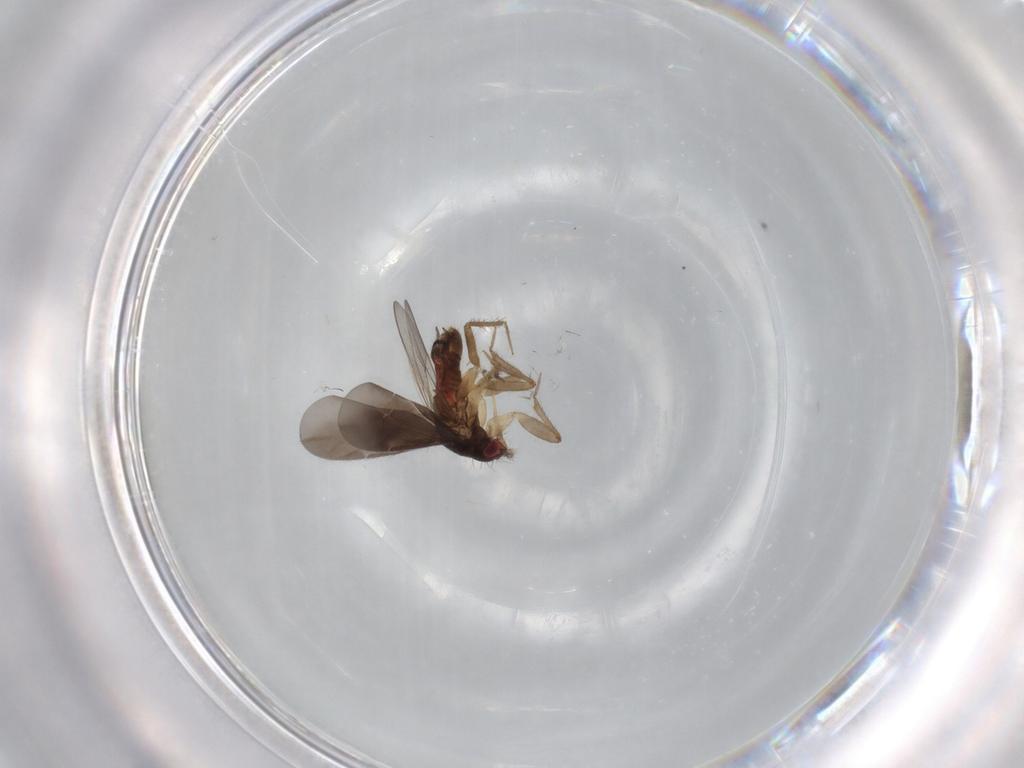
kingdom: Animalia
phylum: Arthropoda
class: Insecta
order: Hemiptera
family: Ceratocombidae
